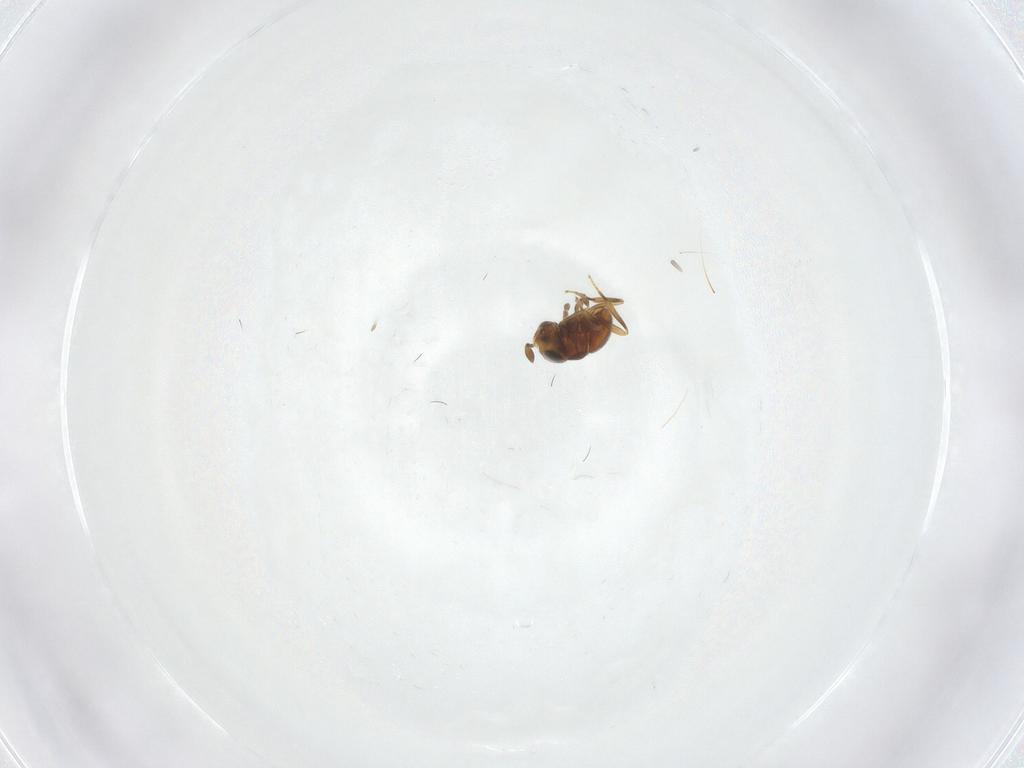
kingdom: Animalia
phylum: Arthropoda
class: Insecta
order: Hymenoptera
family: Scelionidae
